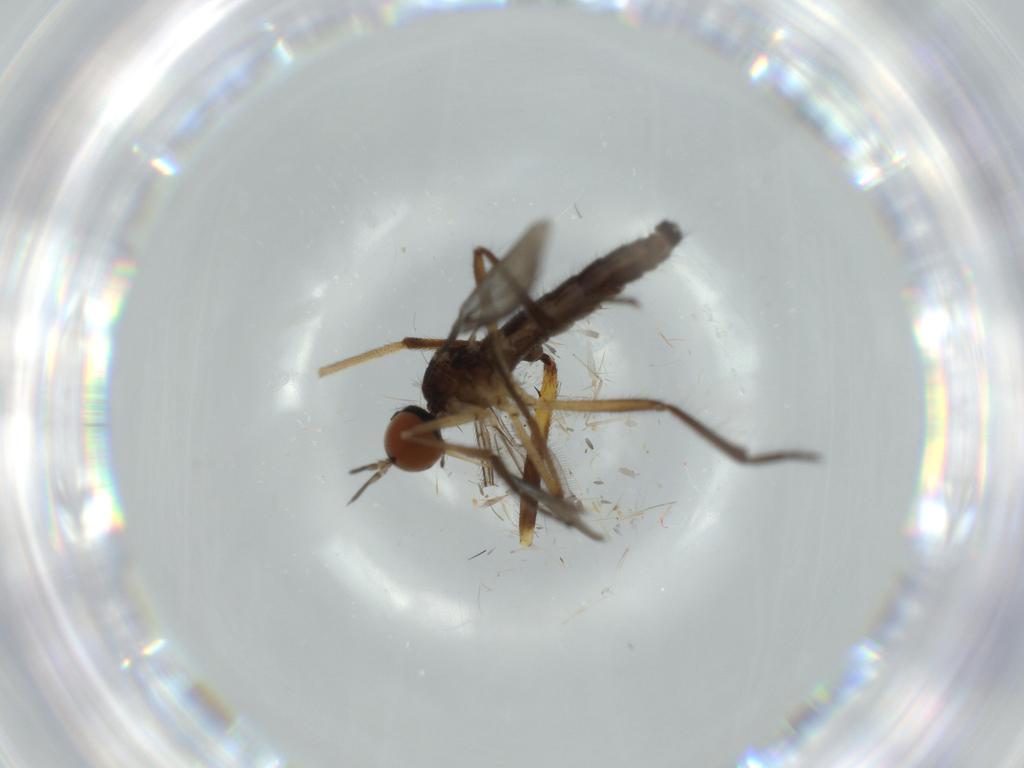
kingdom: Animalia
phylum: Arthropoda
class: Insecta
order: Diptera
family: Empididae
